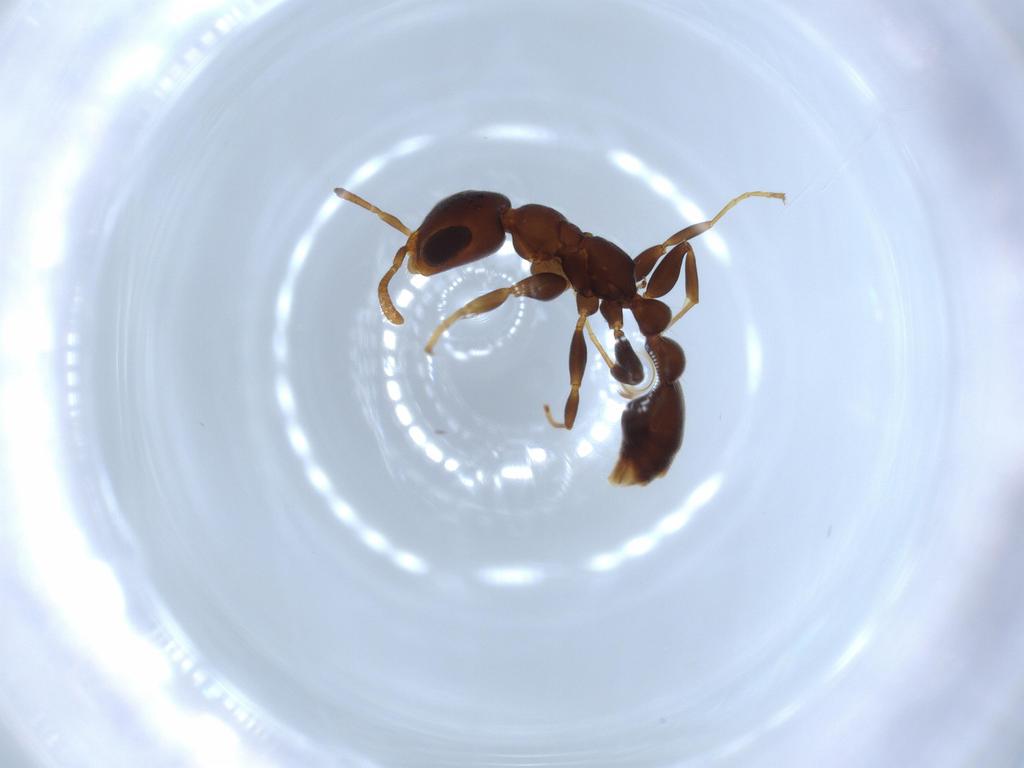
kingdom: Animalia
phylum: Arthropoda
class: Insecta
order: Hymenoptera
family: Formicidae
